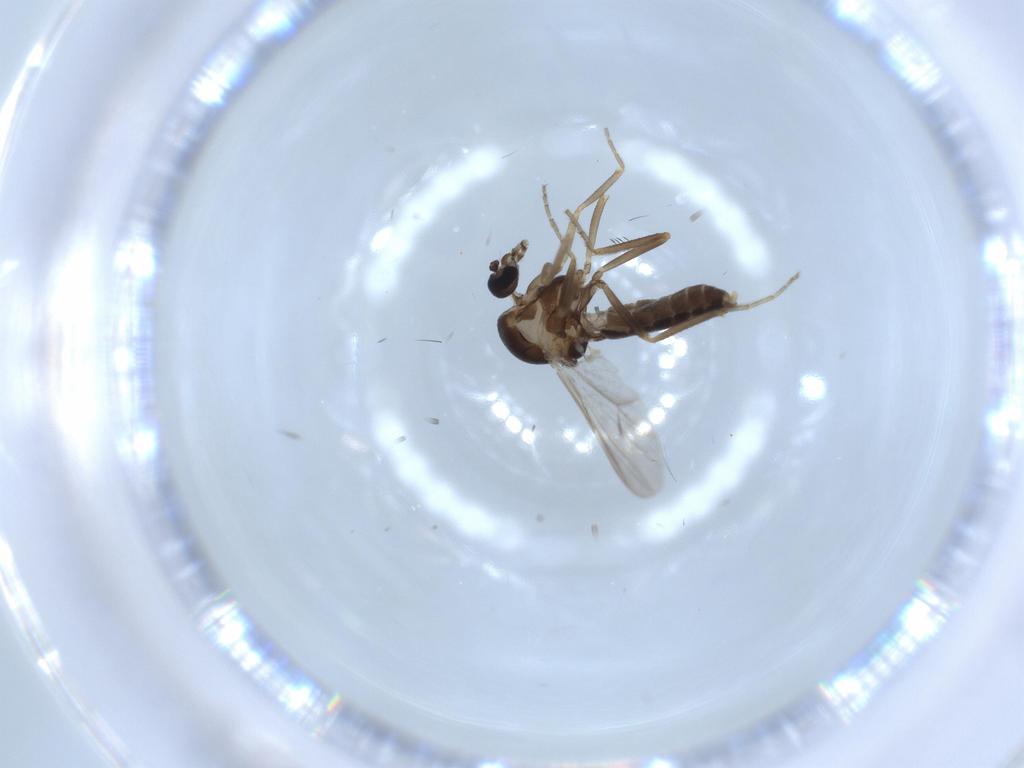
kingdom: Animalia
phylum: Arthropoda
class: Insecta
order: Diptera
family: Ceratopogonidae
